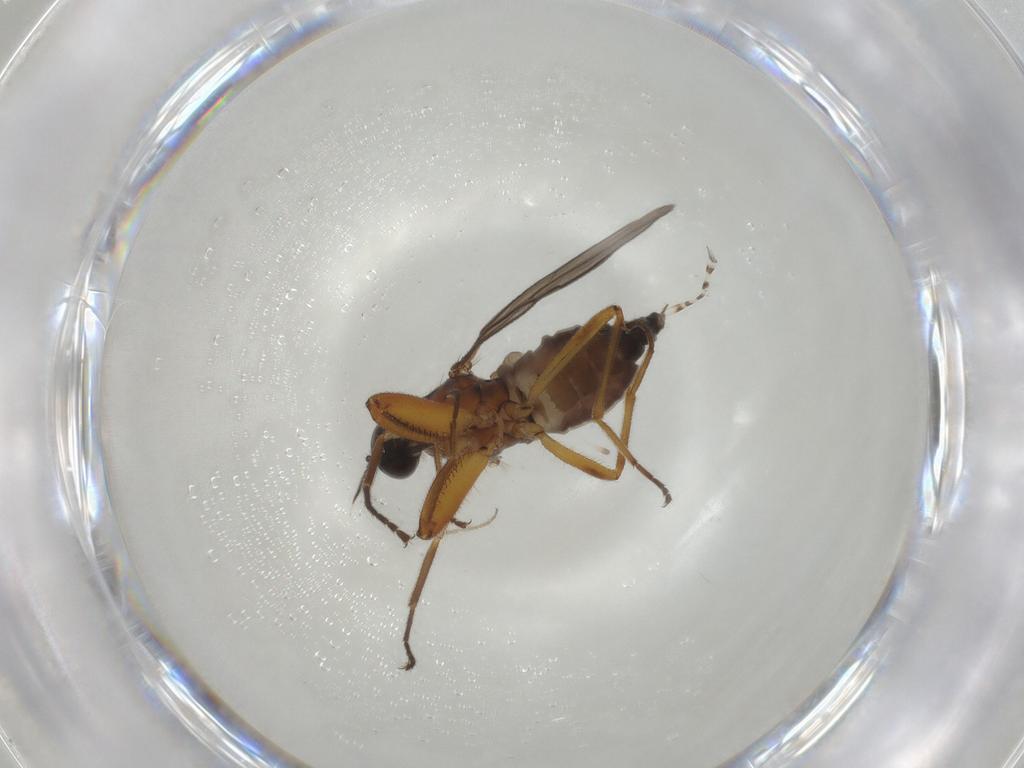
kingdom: Animalia
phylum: Arthropoda
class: Insecta
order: Diptera
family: Hybotidae
